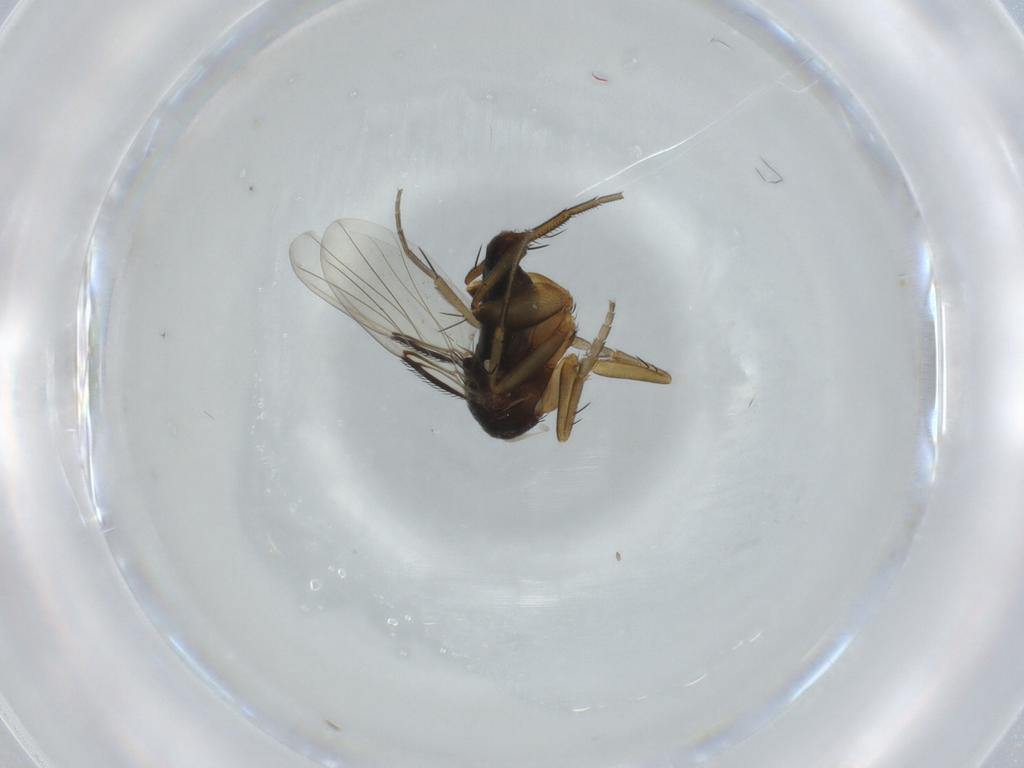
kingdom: Animalia
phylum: Arthropoda
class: Insecta
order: Diptera
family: Phoridae
